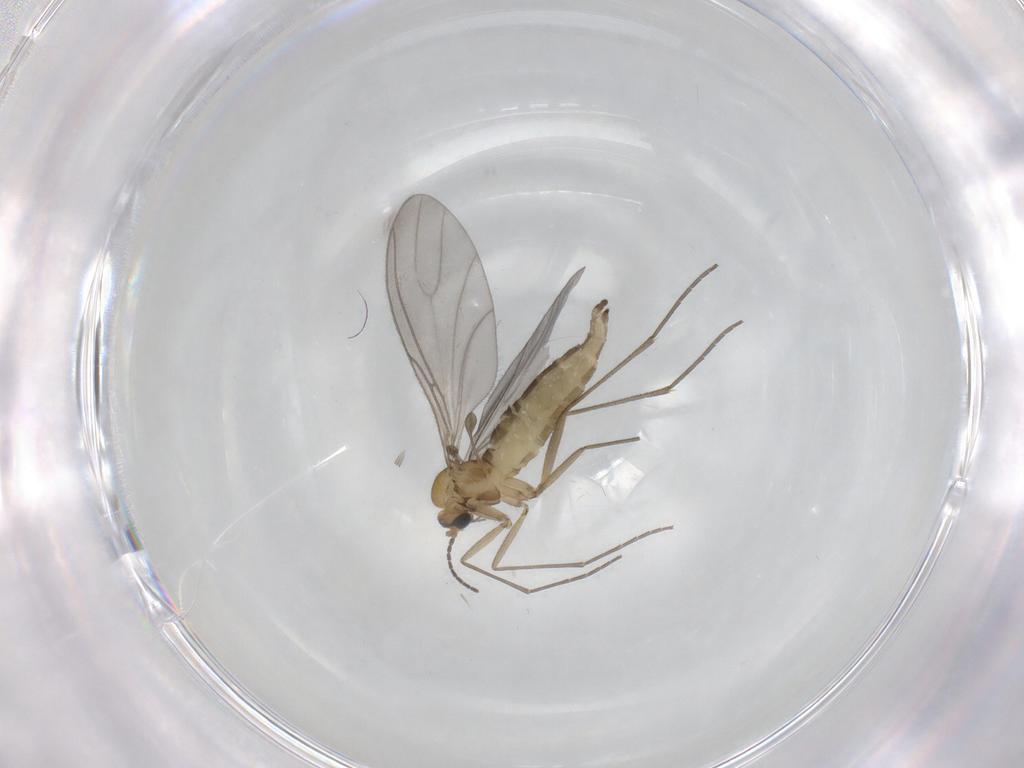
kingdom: Animalia
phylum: Arthropoda
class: Insecta
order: Diptera
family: Sciaridae
